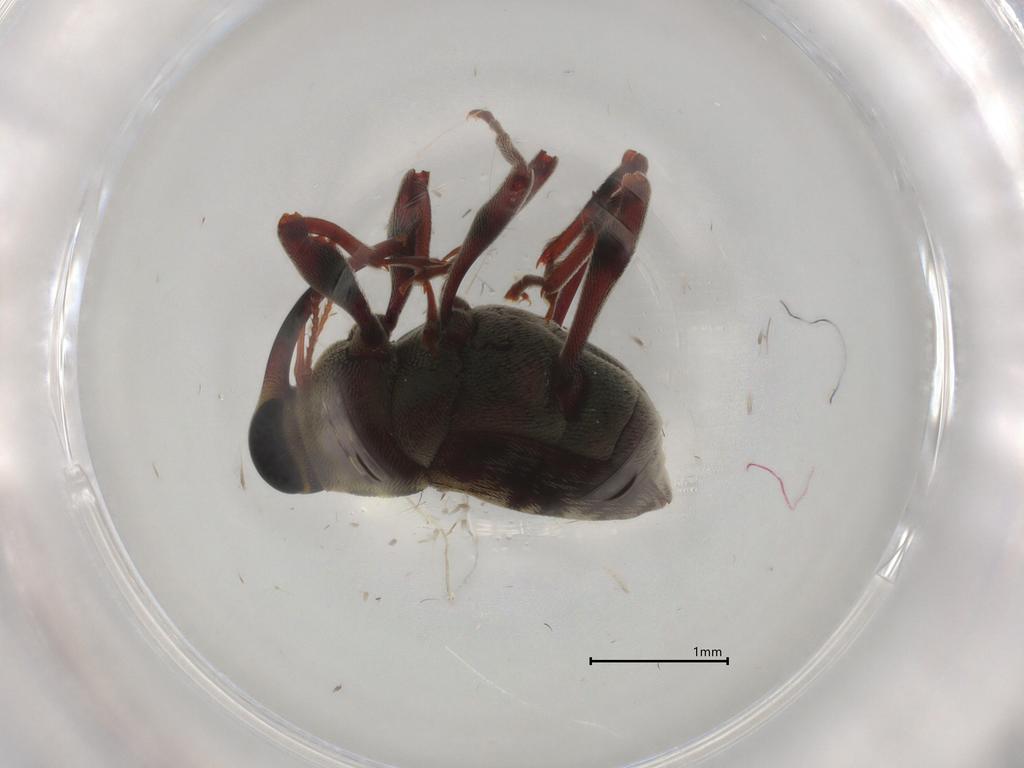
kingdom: Animalia
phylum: Arthropoda
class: Insecta
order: Coleoptera
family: Curculionidae
